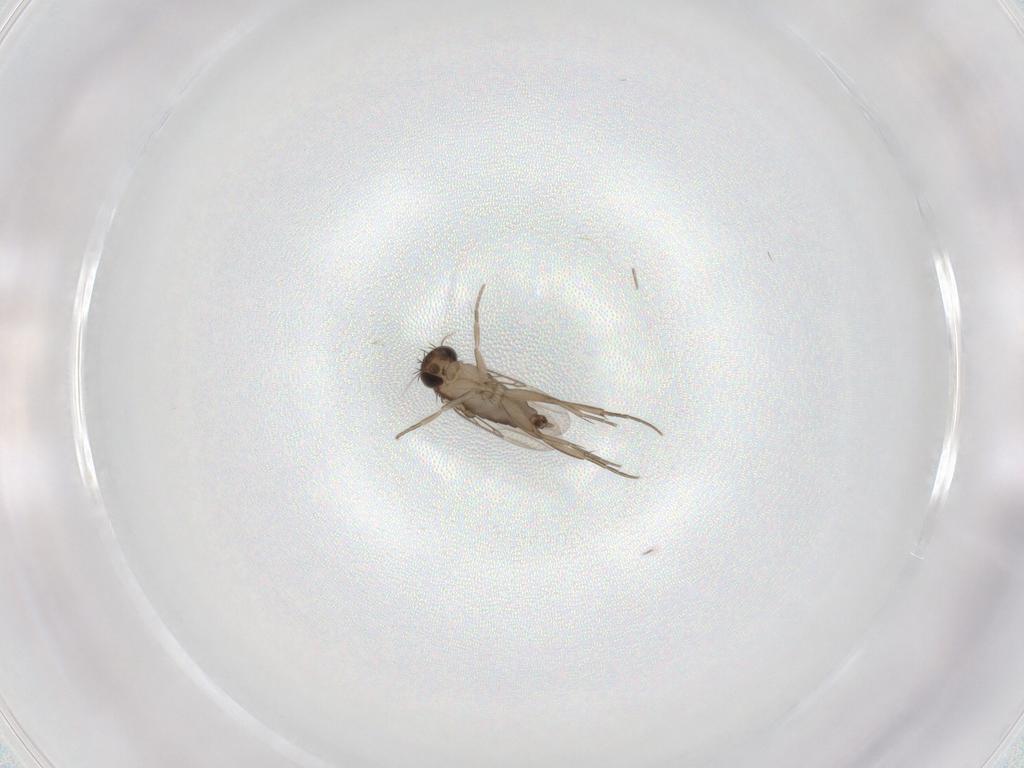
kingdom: Animalia
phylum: Arthropoda
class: Insecta
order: Diptera
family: Phoridae
